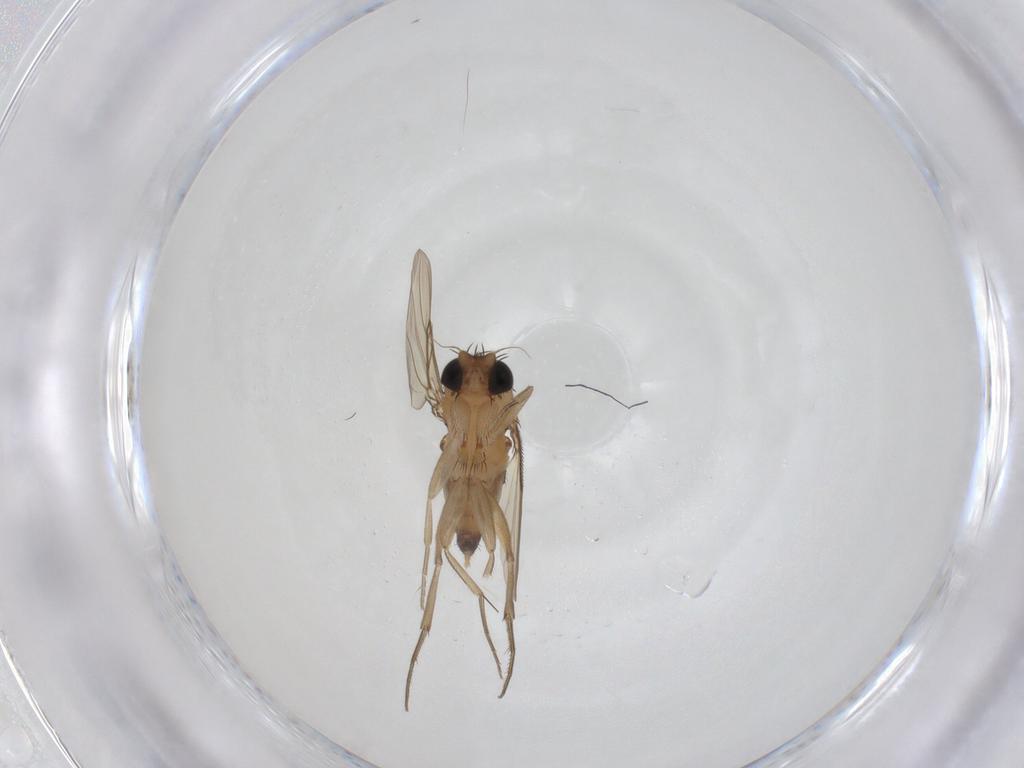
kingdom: Animalia
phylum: Arthropoda
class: Insecta
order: Diptera
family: Phoridae
